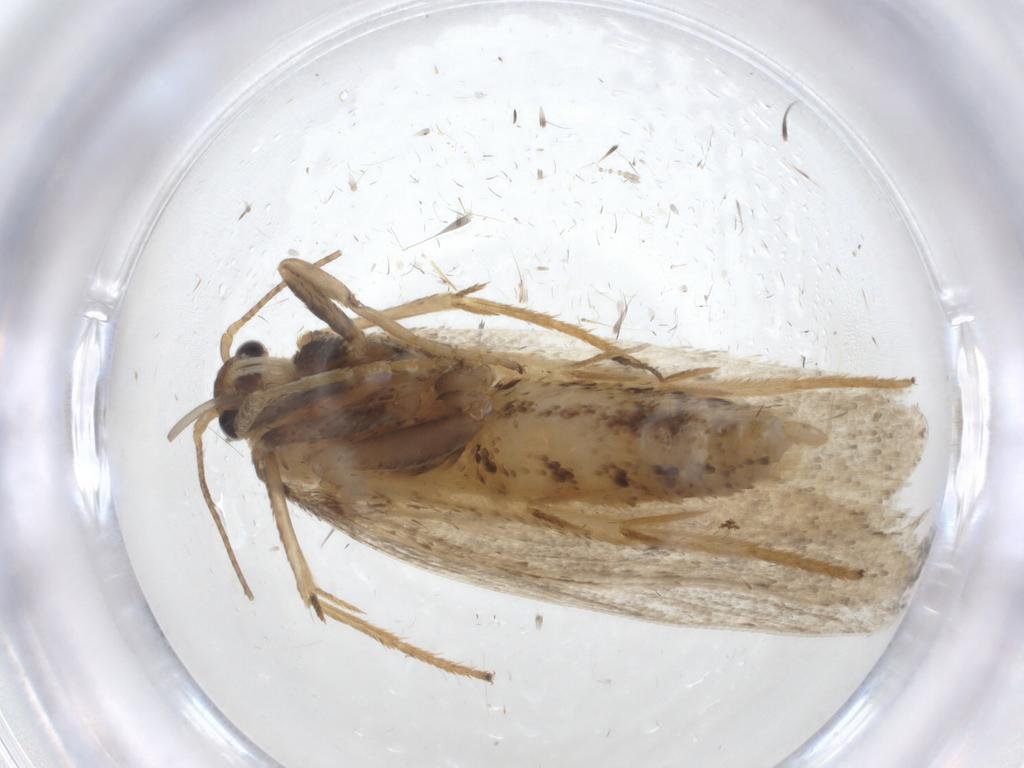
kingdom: Animalia
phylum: Arthropoda
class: Insecta
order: Lepidoptera
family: Depressariidae
